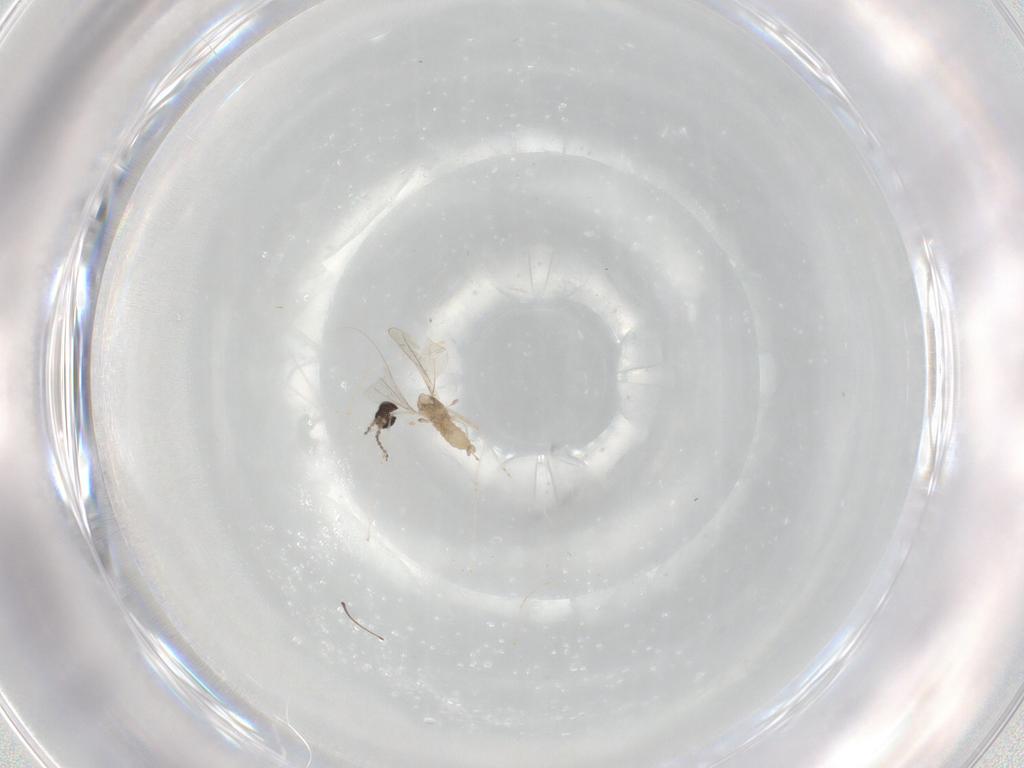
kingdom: Animalia
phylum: Arthropoda
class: Insecta
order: Diptera
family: Cecidomyiidae
